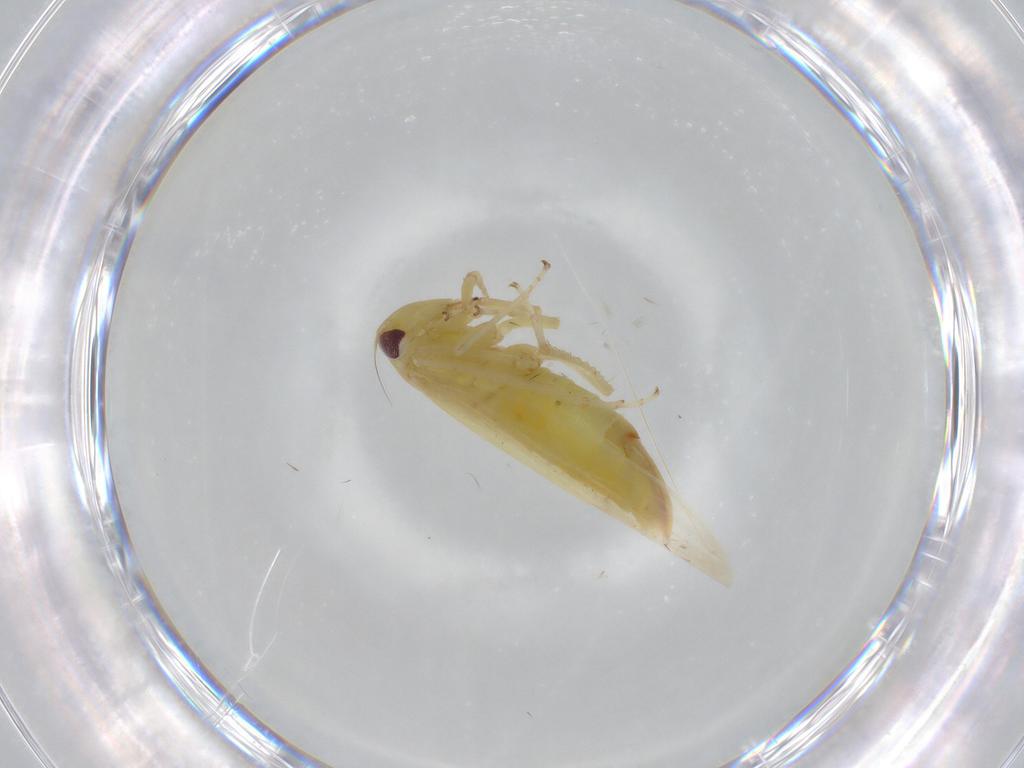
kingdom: Animalia
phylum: Arthropoda
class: Insecta
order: Hemiptera
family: Cicadellidae
